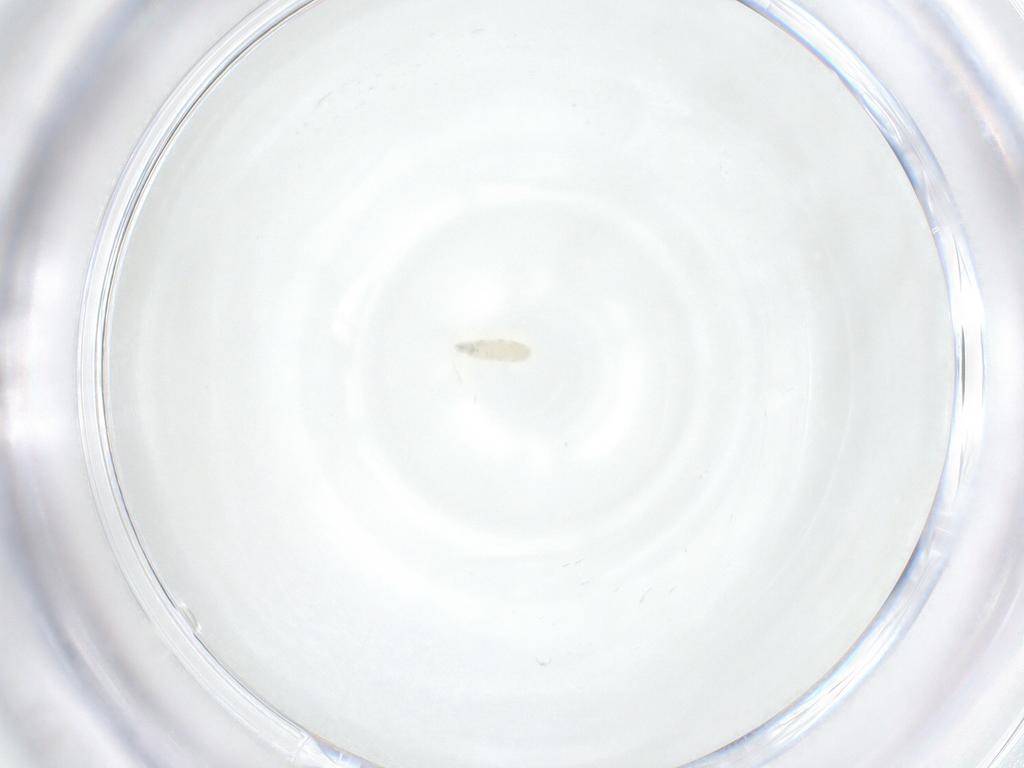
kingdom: Animalia
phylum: Arthropoda
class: Insecta
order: Diptera
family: Sarcophagidae
